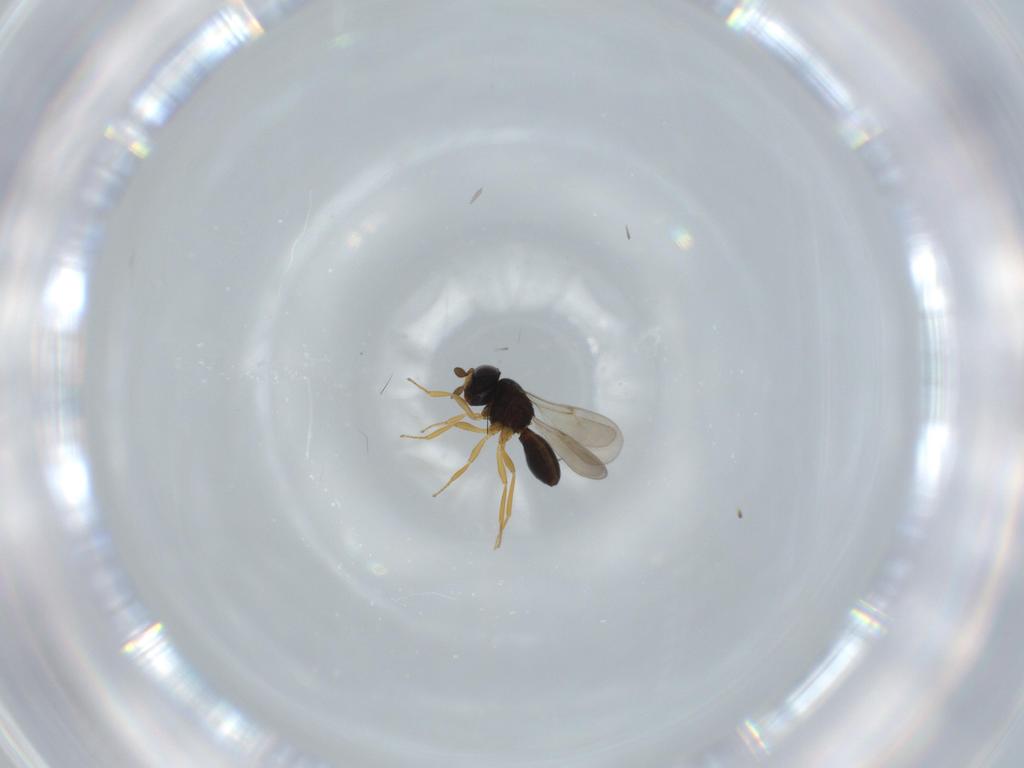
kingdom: Animalia
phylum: Arthropoda
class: Insecta
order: Hymenoptera
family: Scelionidae
